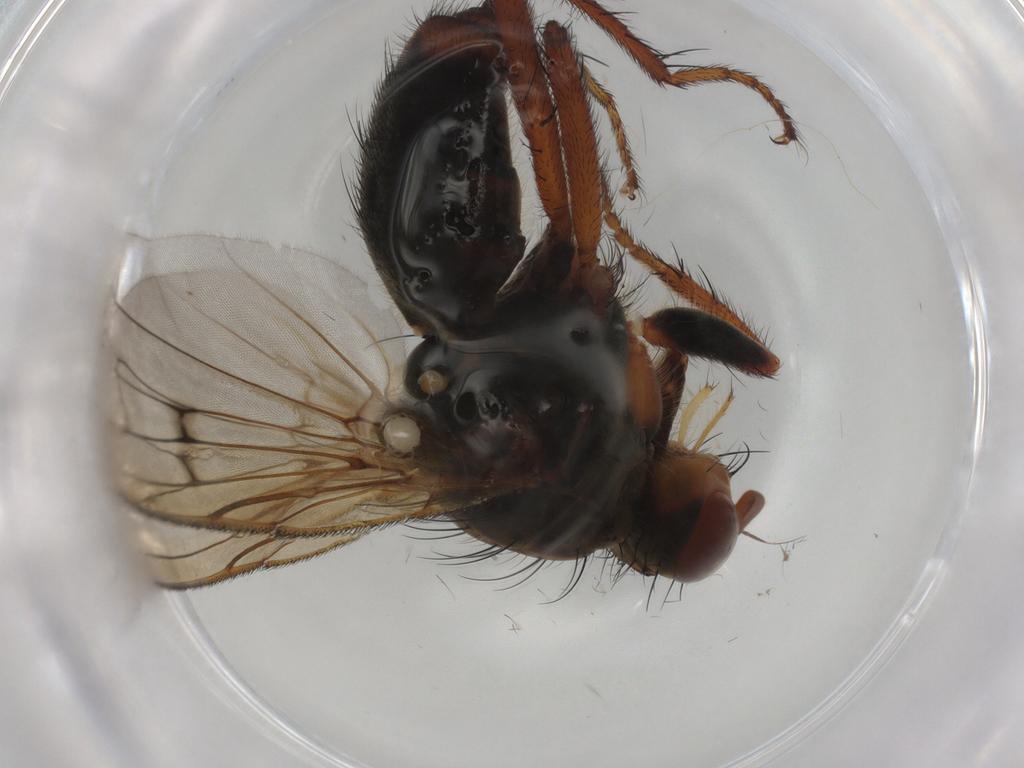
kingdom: Animalia
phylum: Arthropoda
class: Insecta
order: Diptera
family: Scathophagidae
